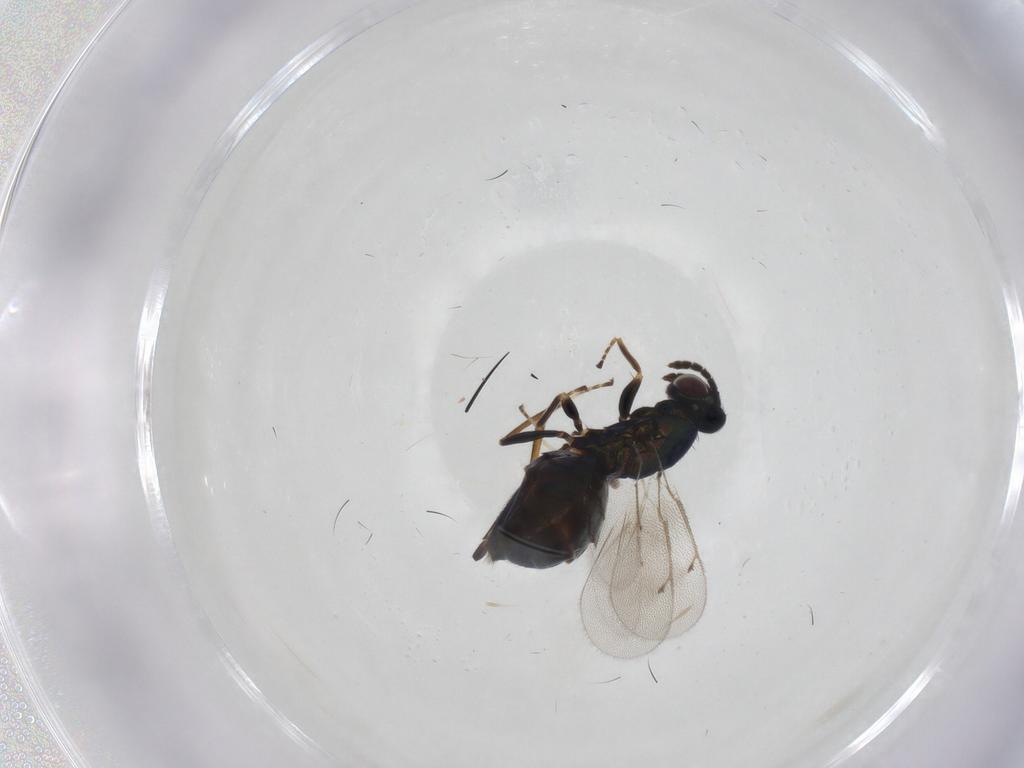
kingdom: Animalia
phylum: Arthropoda
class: Insecta
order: Hymenoptera
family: Eulophidae
